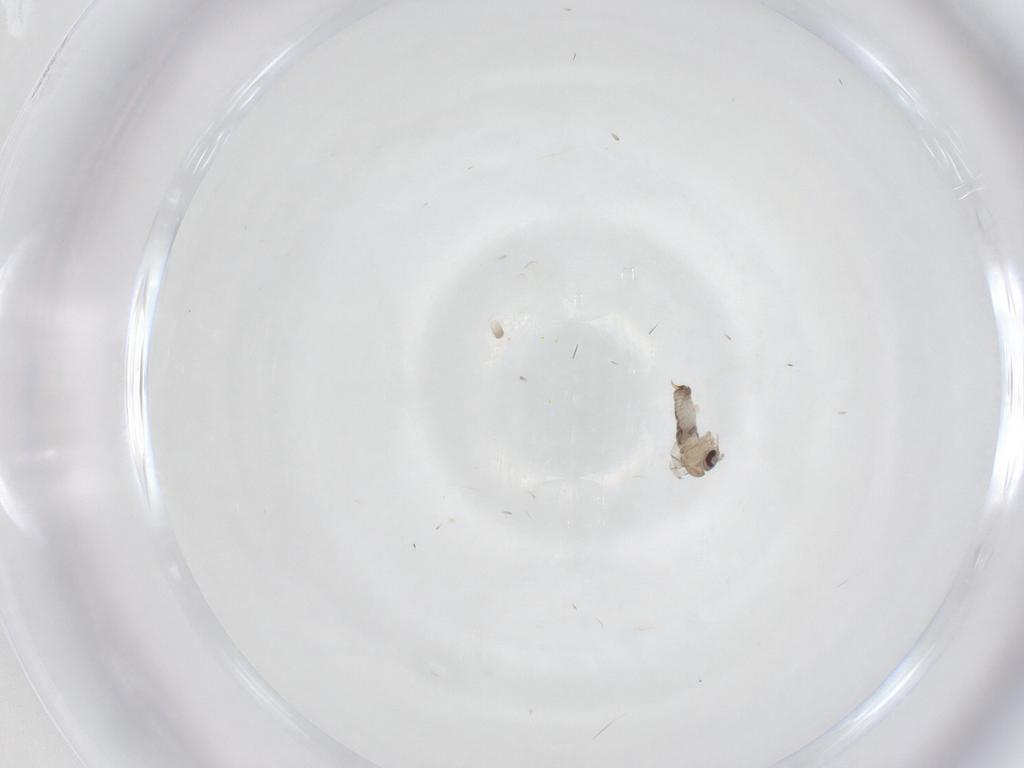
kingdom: Animalia
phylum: Arthropoda
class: Insecta
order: Diptera
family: Psychodidae
